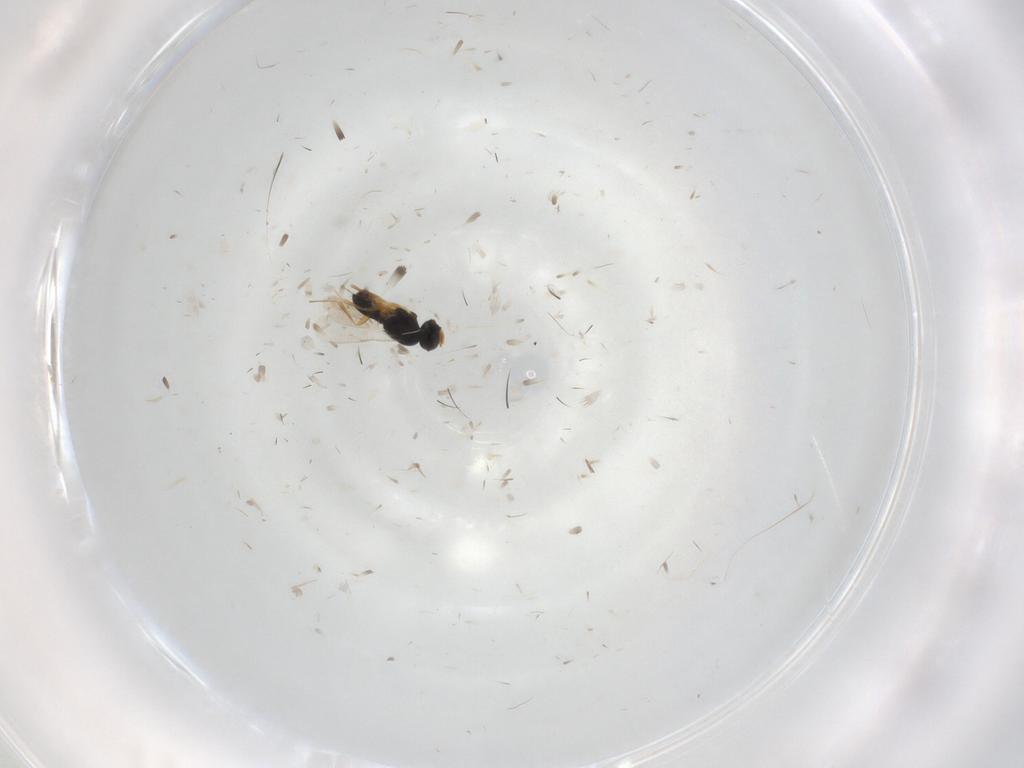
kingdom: Animalia
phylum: Arthropoda
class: Insecta
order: Hymenoptera
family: Scelionidae
